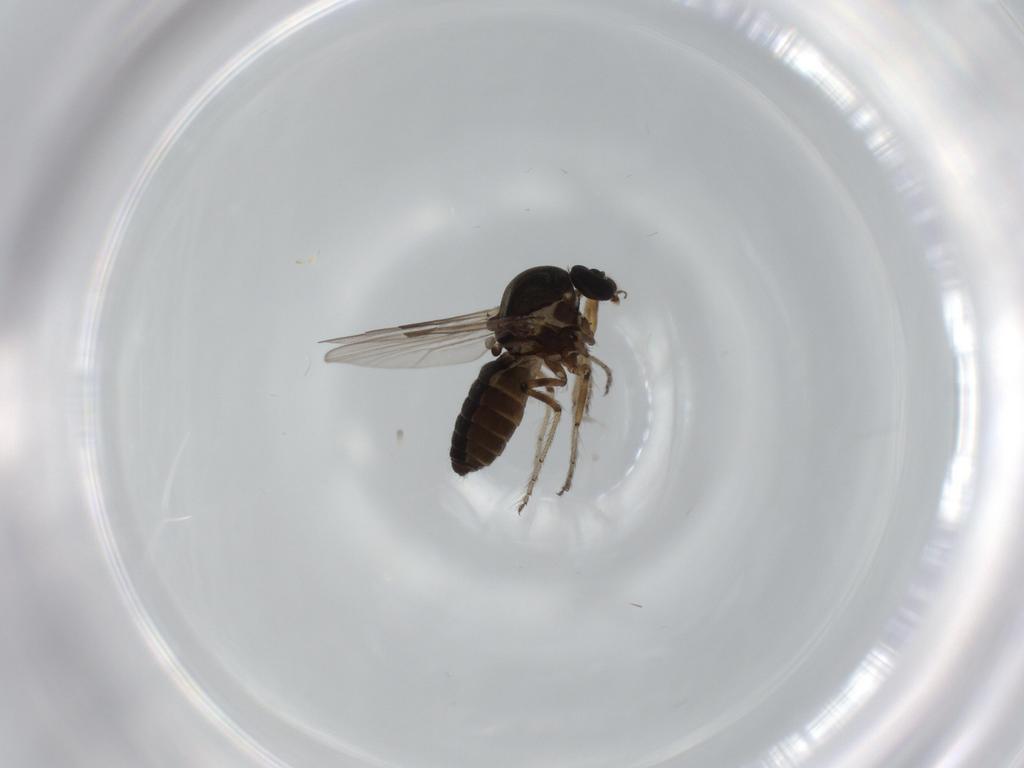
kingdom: Animalia
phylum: Arthropoda
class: Insecta
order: Diptera
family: Ceratopogonidae
